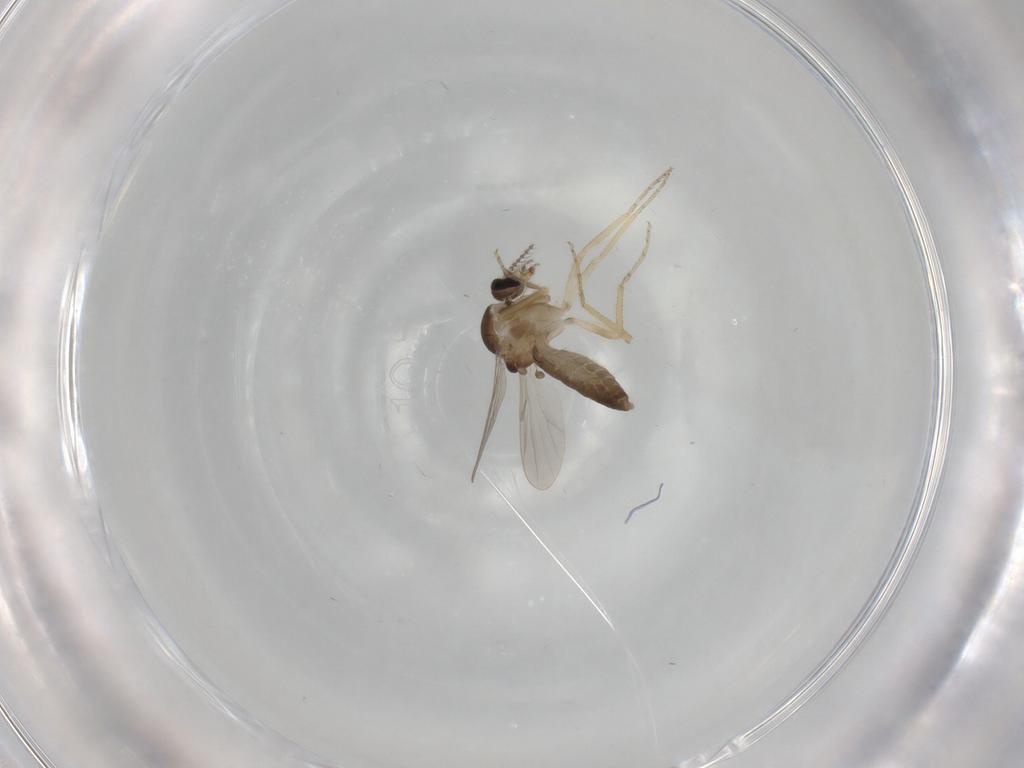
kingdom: Animalia
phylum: Arthropoda
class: Insecta
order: Diptera
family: Ceratopogonidae
